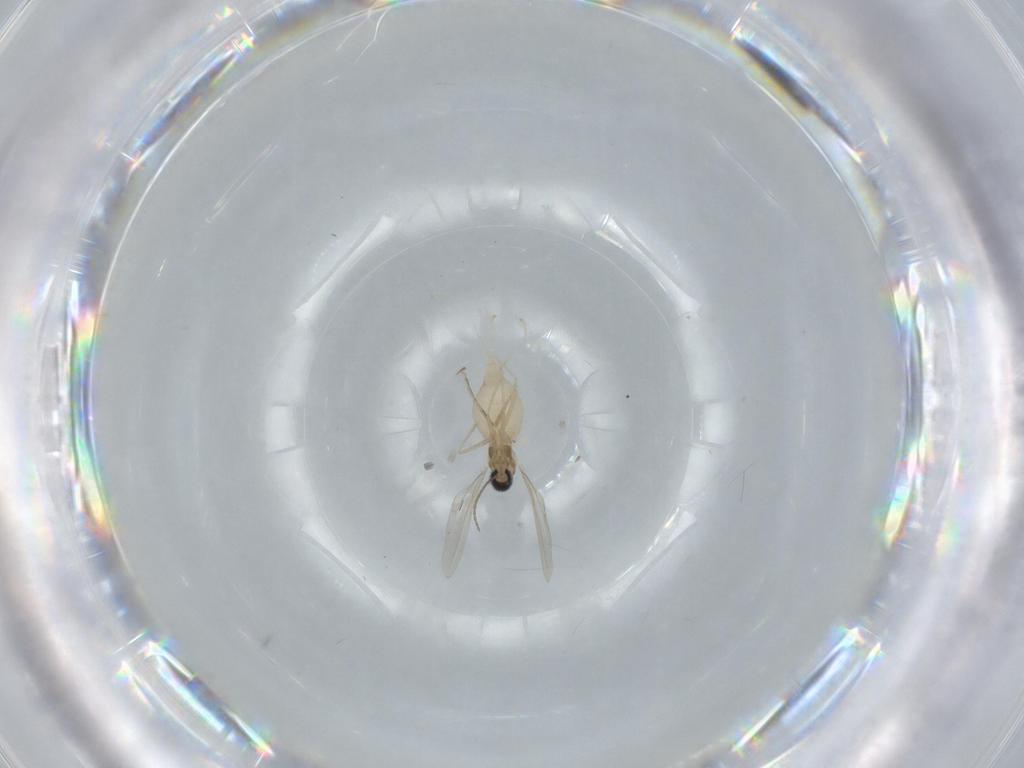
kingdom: Animalia
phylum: Arthropoda
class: Insecta
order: Diptera
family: Cecidomyiidae
